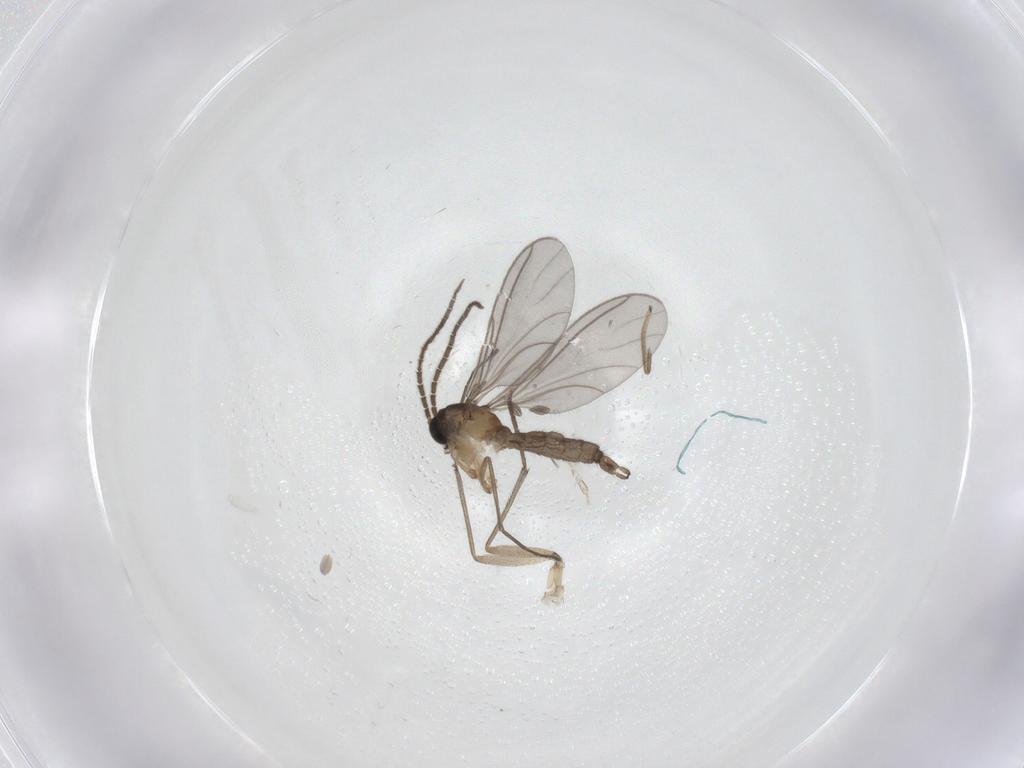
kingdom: Animalia
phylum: Arthropoda
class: Insecta
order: Diptera
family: Sciaridae
